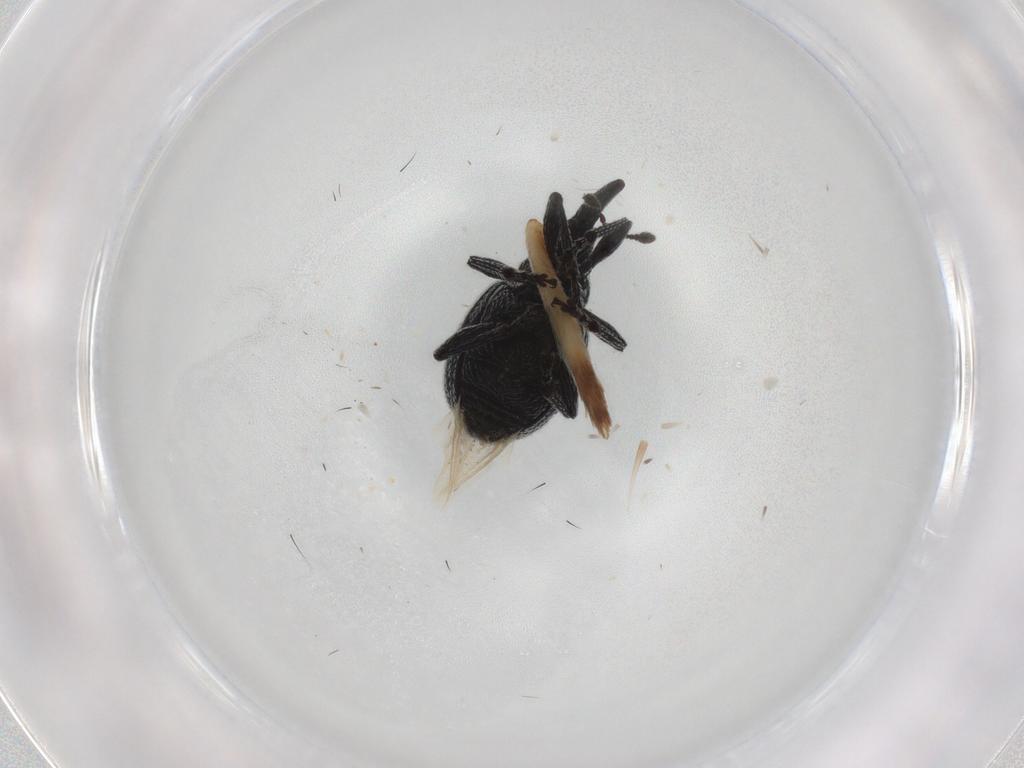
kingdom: Animalia
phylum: Arthropoda
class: Insecta
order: Coleoptera
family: Brentidae
